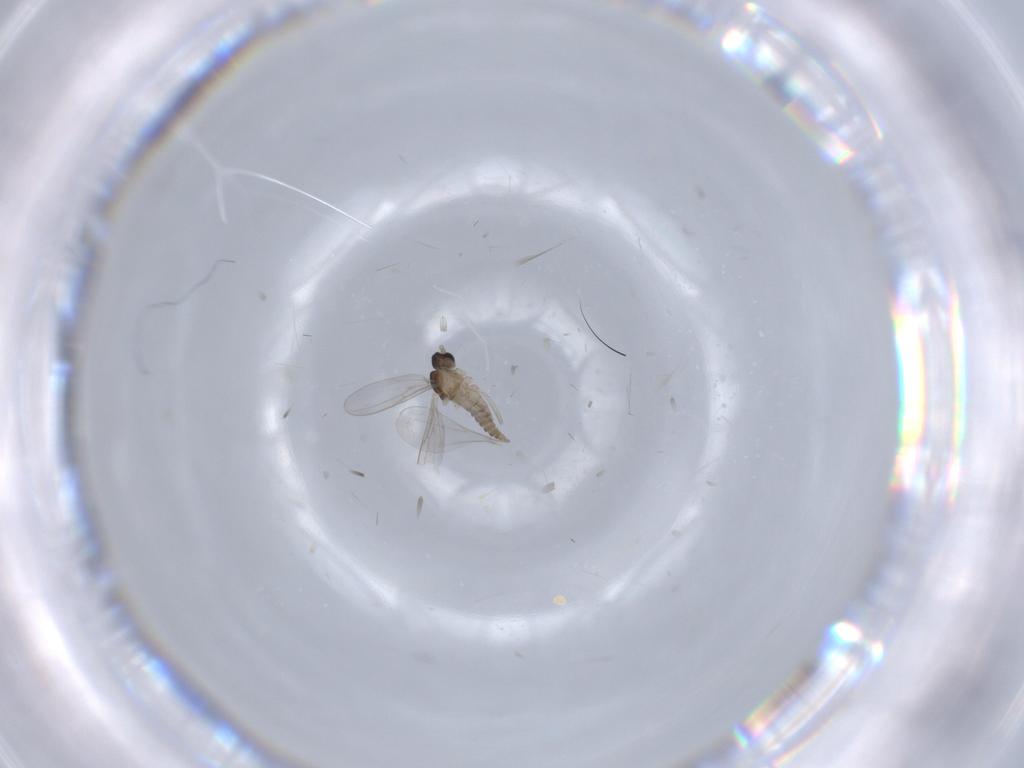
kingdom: Animalia
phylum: Arthropoda
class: Insecta
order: Diptera
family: Cecidomyiidae
